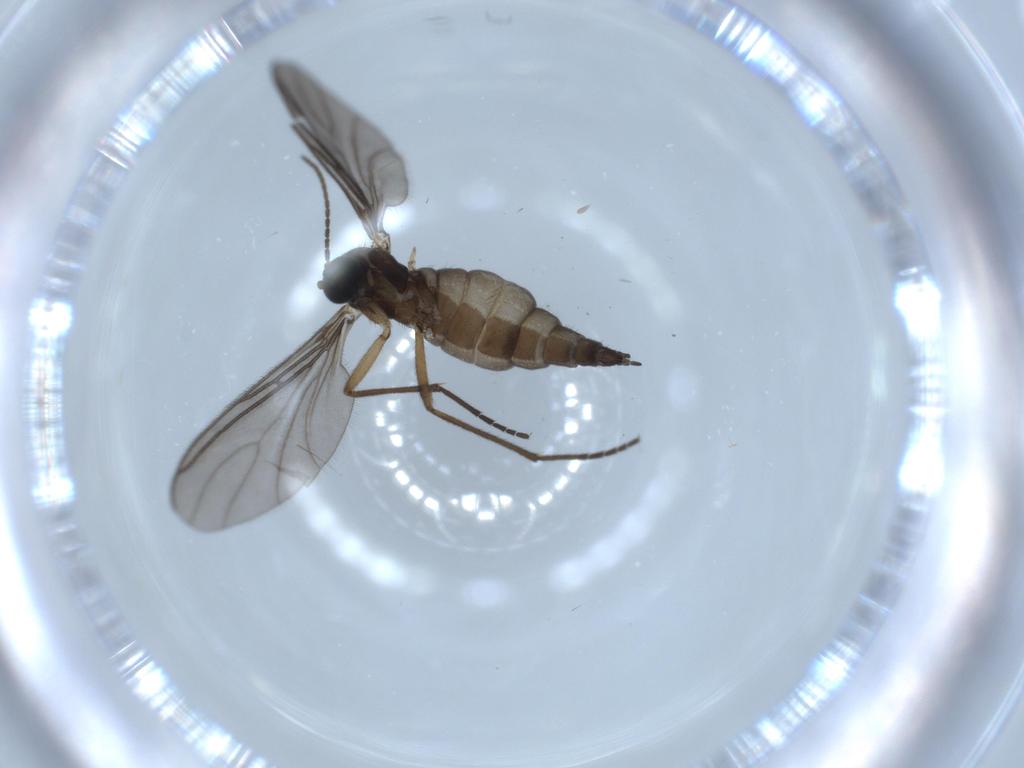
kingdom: Animalia
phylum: Arthropoda
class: Insecta
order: Diptera
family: Sciaridae
